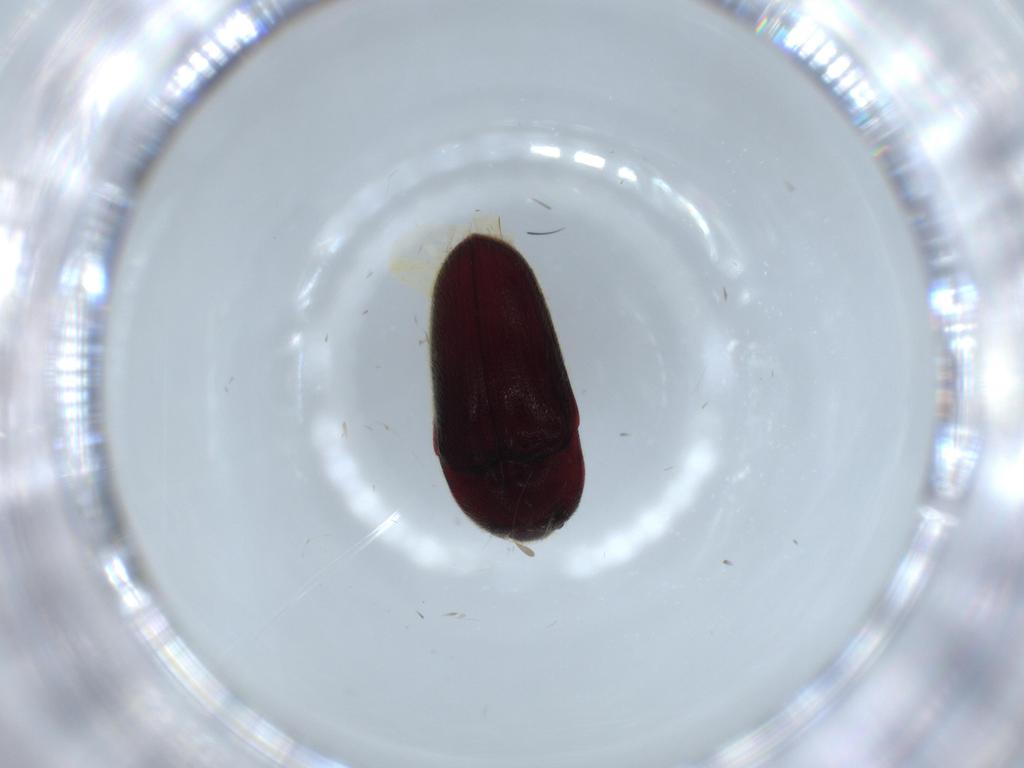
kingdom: Animalia
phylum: Arthropoda
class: Insecta
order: Coleoptera
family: Throscidae
